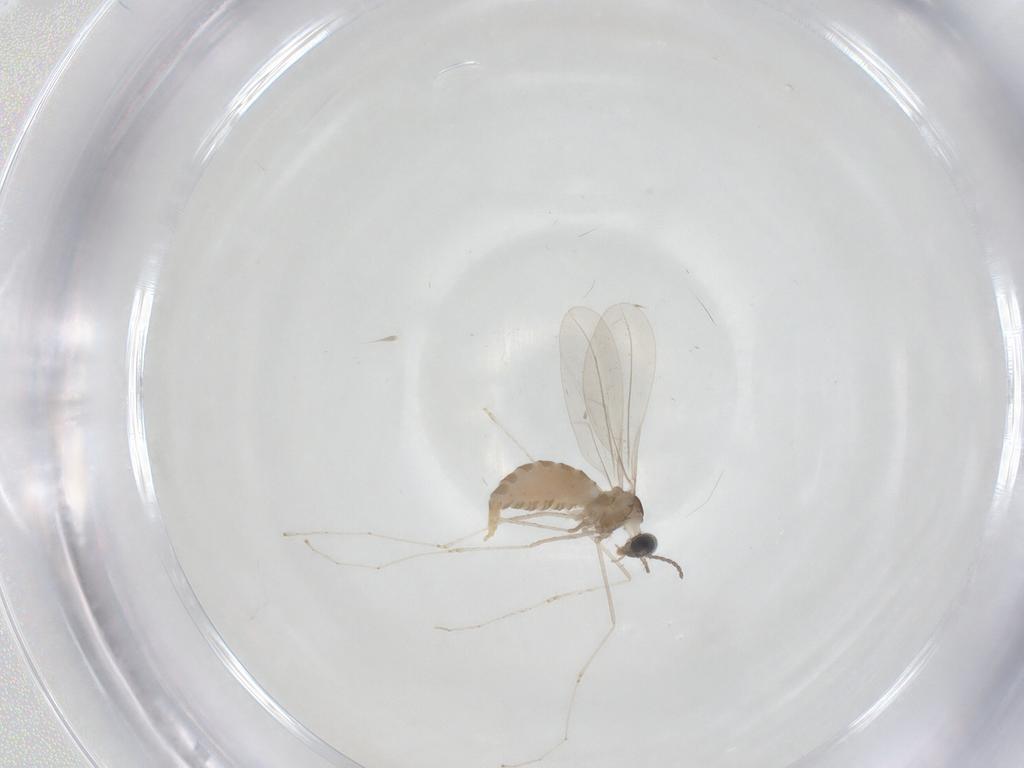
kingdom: Animalia
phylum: Arthropoda
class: Insecta
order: Diptera
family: Cecidomyiidae
